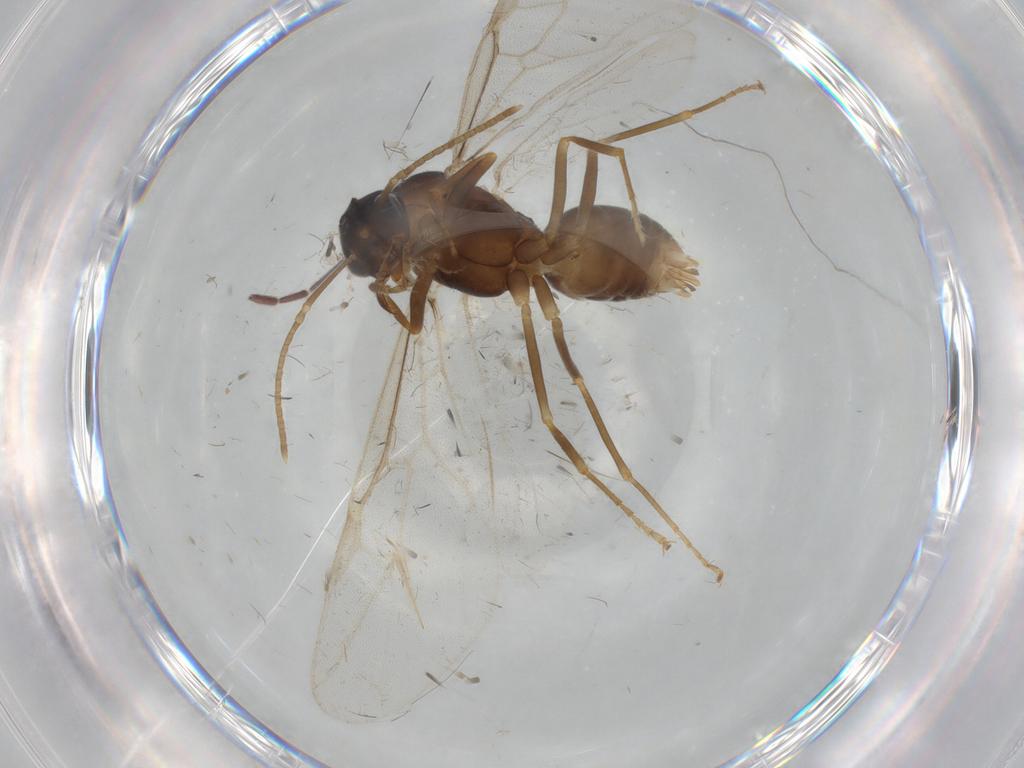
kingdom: Animalia
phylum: Arthropoda
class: Insecta
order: Hymenoptera
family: Formicidae
